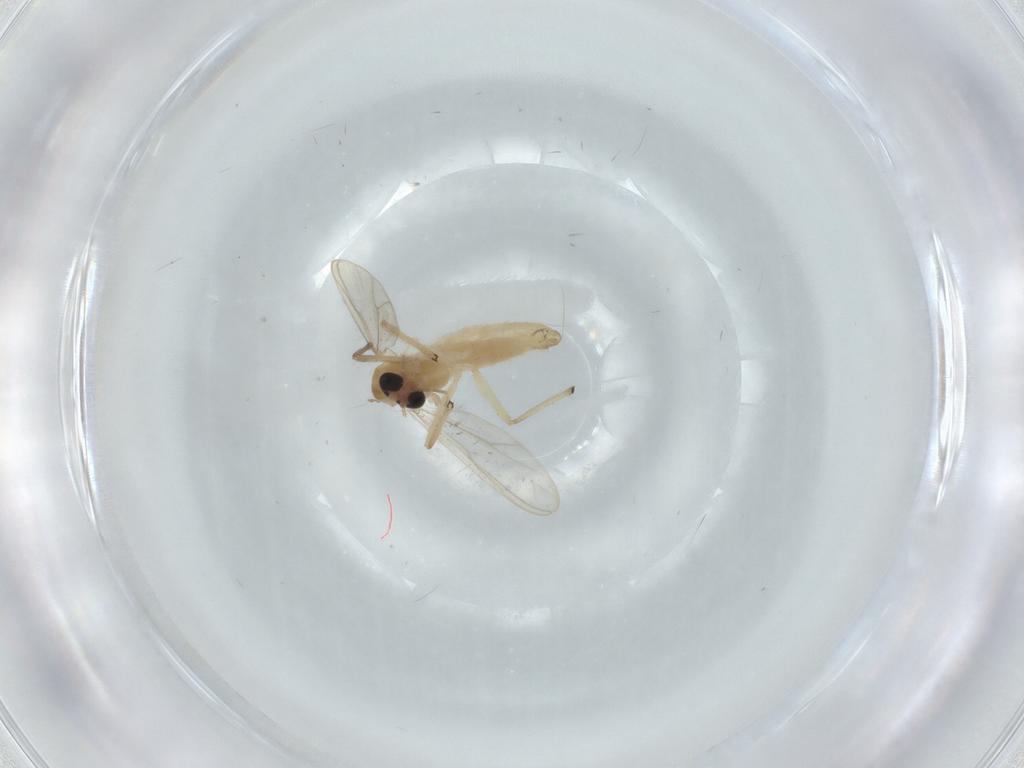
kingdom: Animalia
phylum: Arthropoda
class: Insecta
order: Diptera
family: Chironomidae
